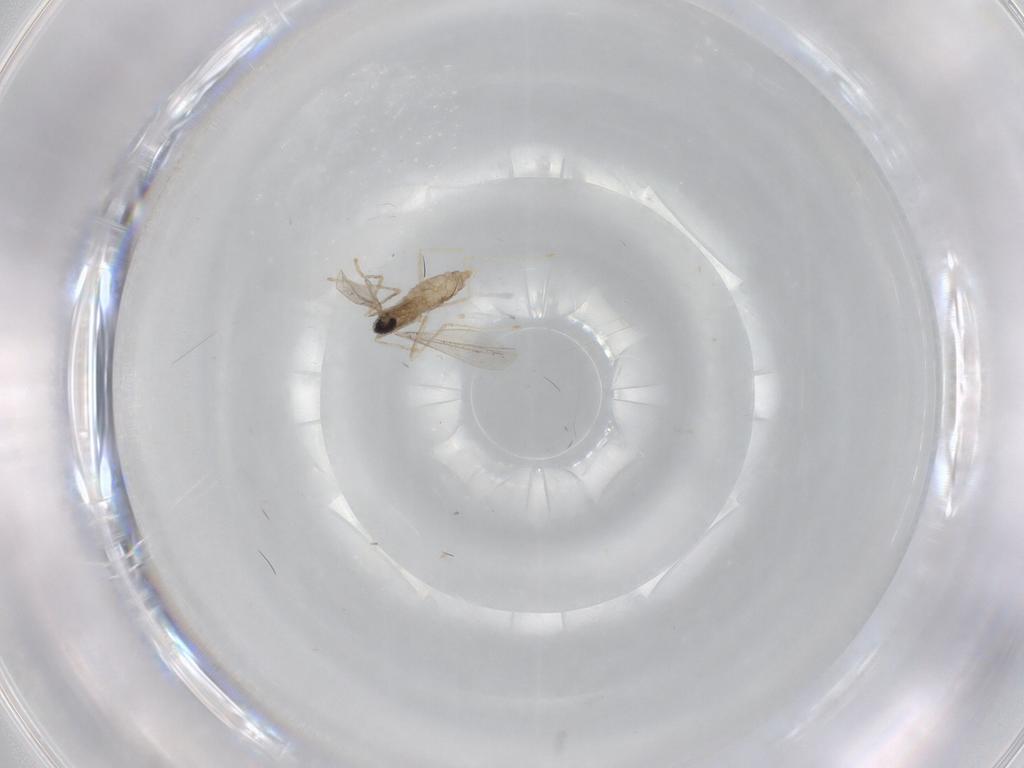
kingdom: Animalia
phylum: Arthropoda
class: Insecta
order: Diptera
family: Cecidomyiidae
